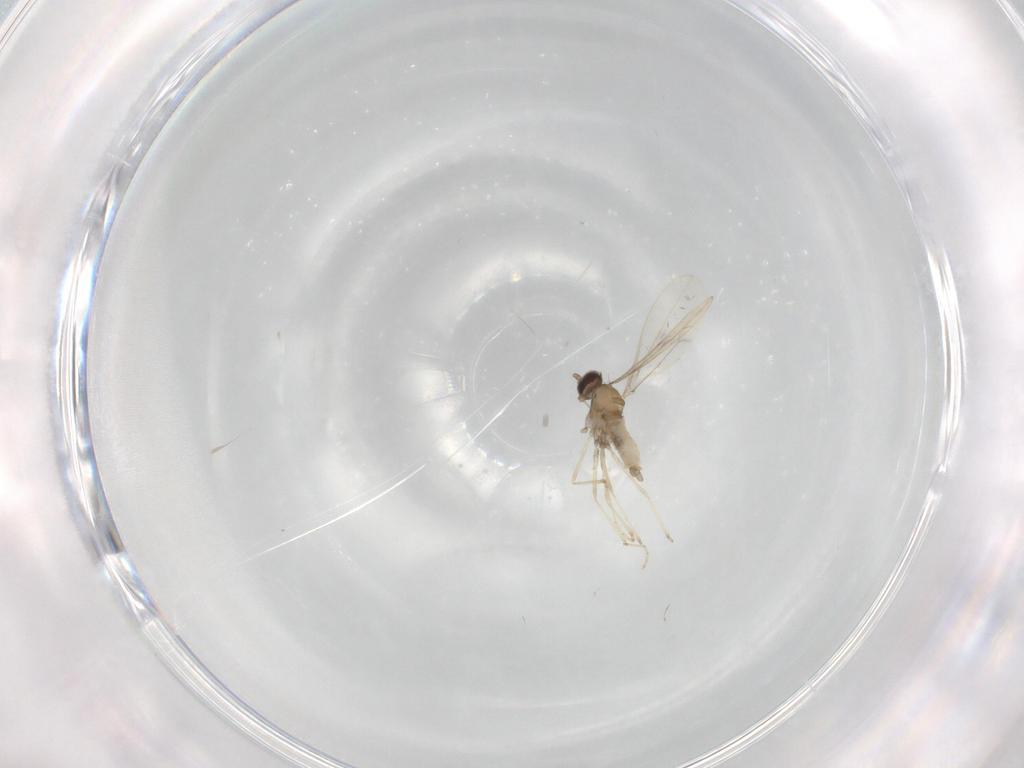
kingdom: Animalia
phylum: Arthropoda
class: Insecta
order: Diptera
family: Cecidomyiidae
